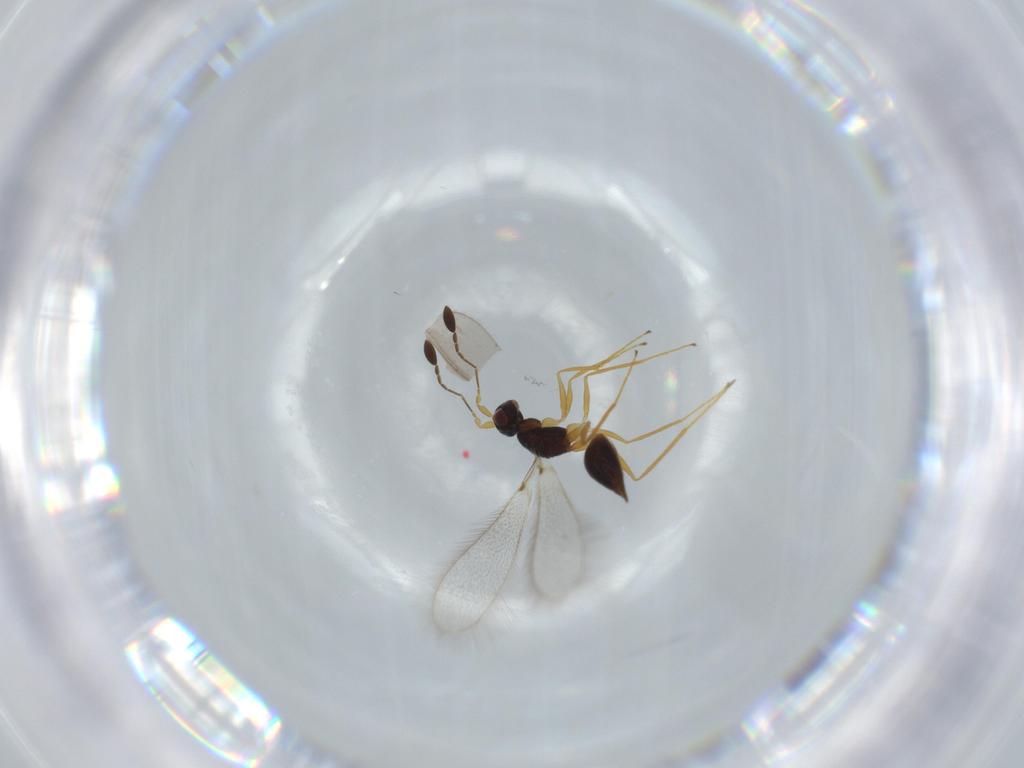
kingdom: Animalia
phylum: Arthropoda
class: Insecta
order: Hymenoptera
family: Mymaridae
